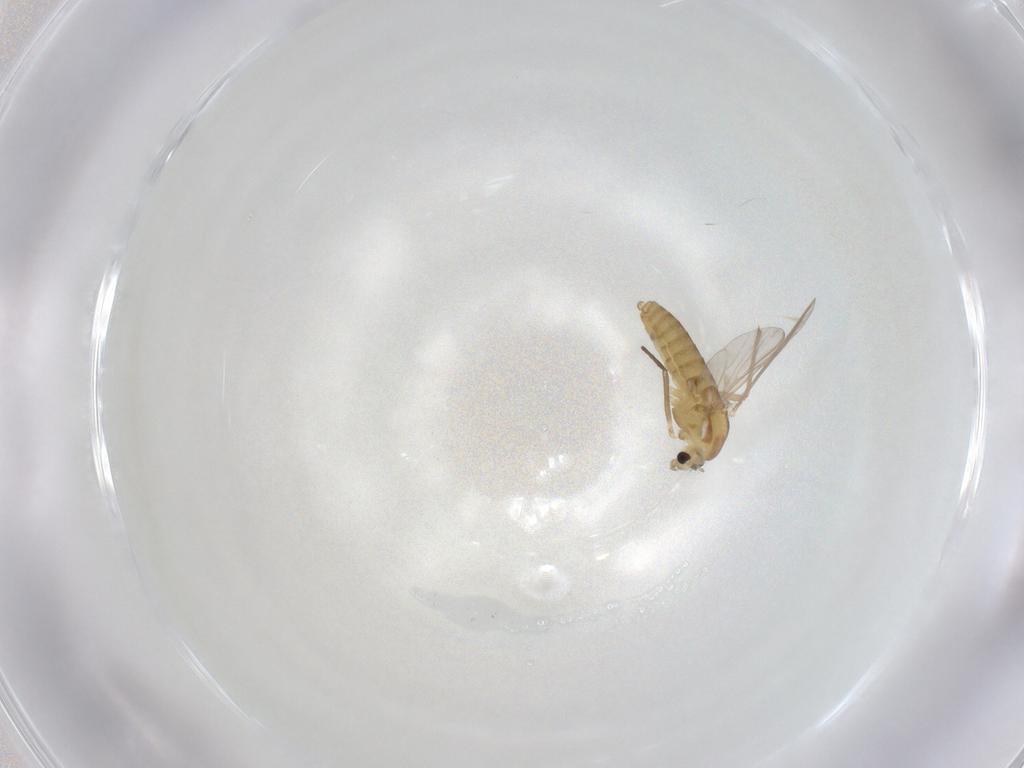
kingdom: Animalia
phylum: Arthropoda
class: Insecta
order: Diptera
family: Chironomidae
